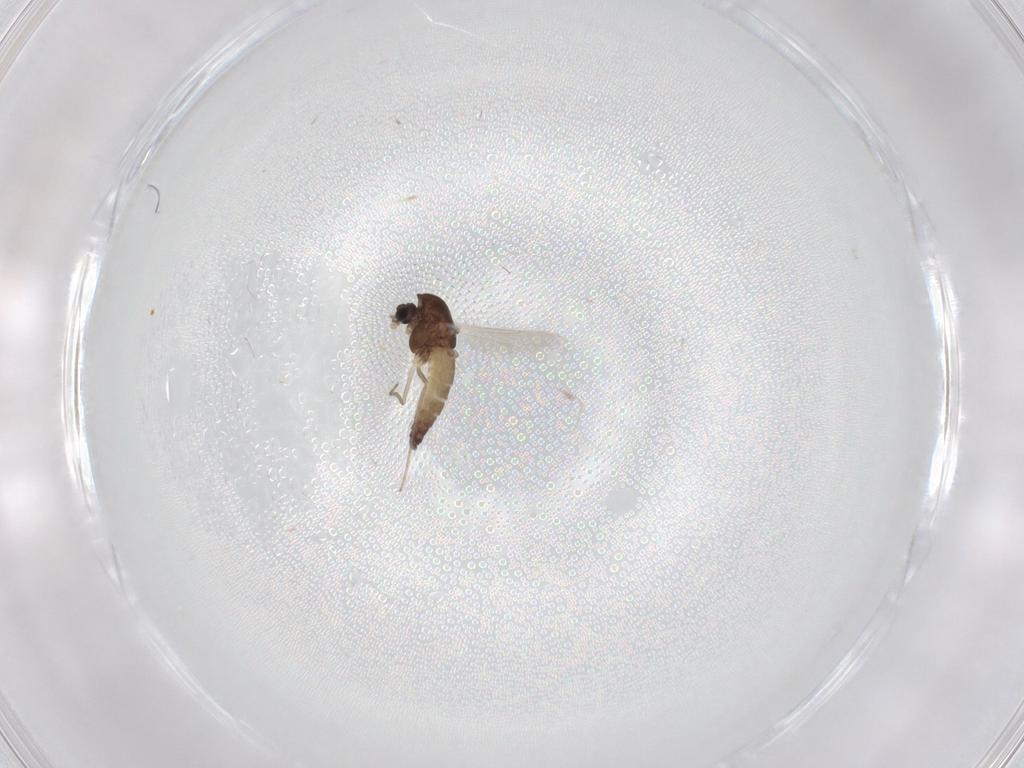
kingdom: Animalia
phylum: Arthropoda
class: Insecta
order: Diptera
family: Chironomidae
